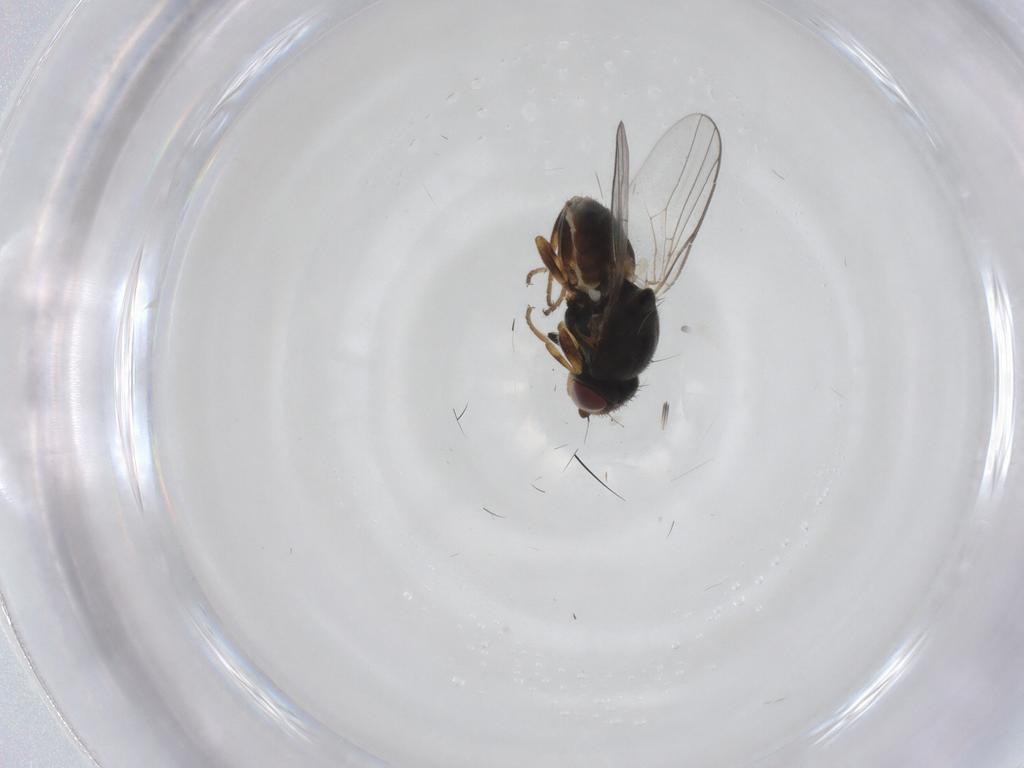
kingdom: Animalia
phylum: Arthropoda
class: Insecta
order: Diptera
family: Chloropidae
